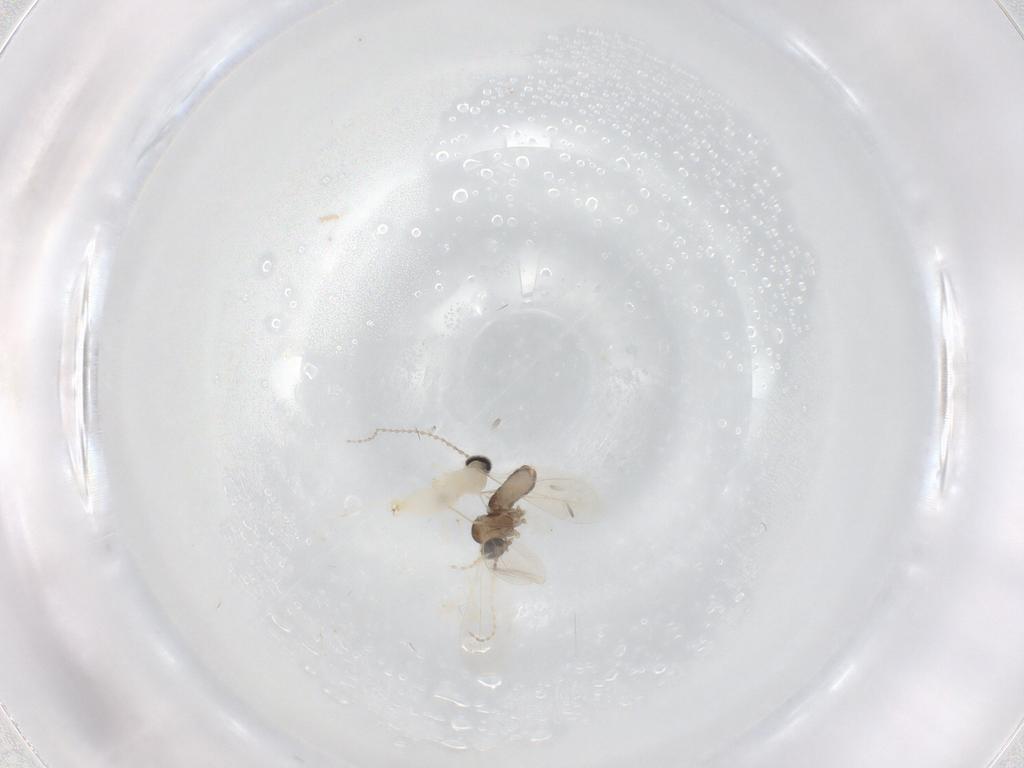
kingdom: Animalia
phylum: Arthropoda
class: Insecta
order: Diptera
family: Cecidomyiidae
